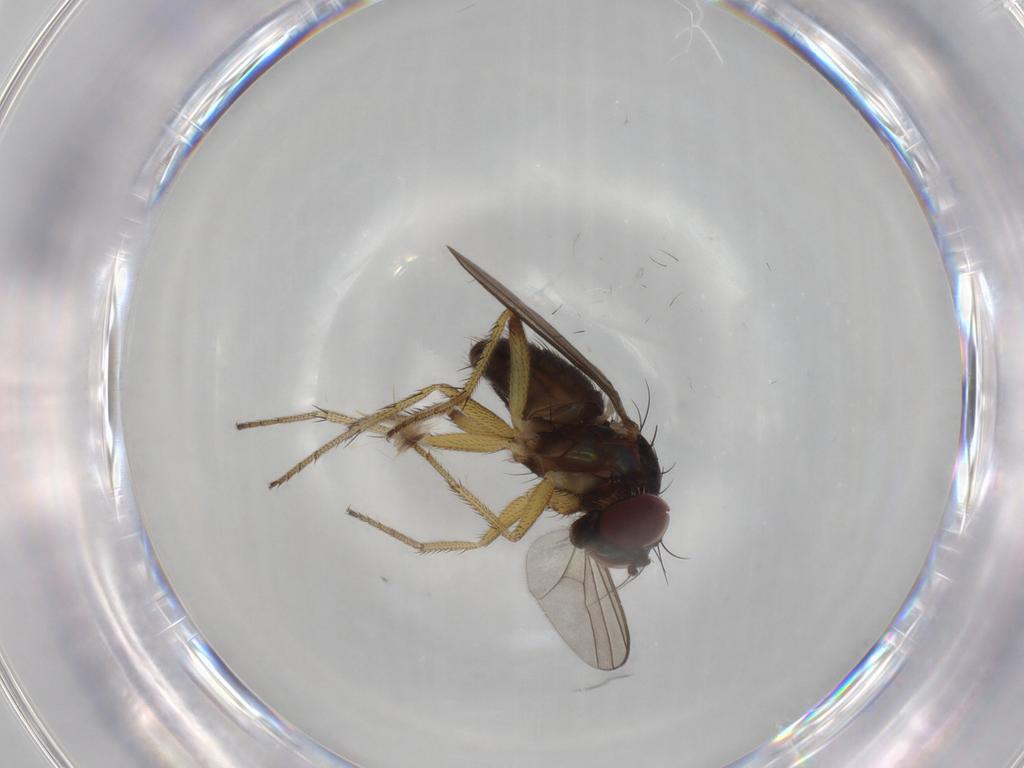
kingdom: Animalia
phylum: Arthropoda
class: Insecta
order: Diptera
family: Dolichopodidae
